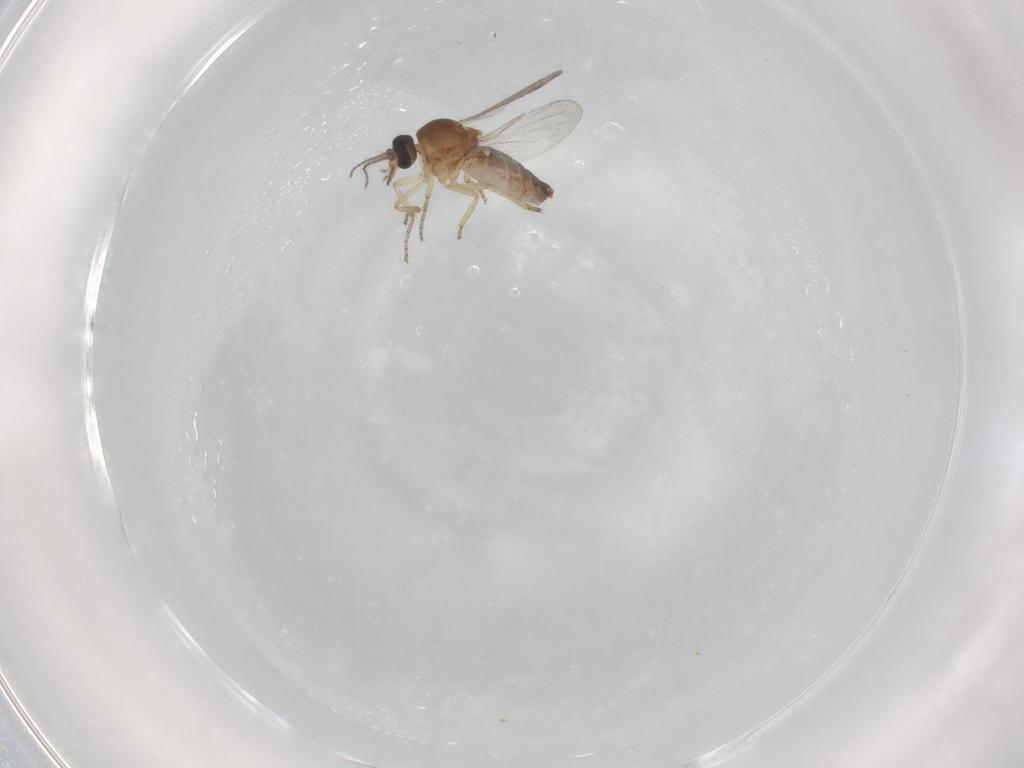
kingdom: Animalia
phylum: Arthropoda
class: Insecta
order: Diptera
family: Ceratopogonidae
